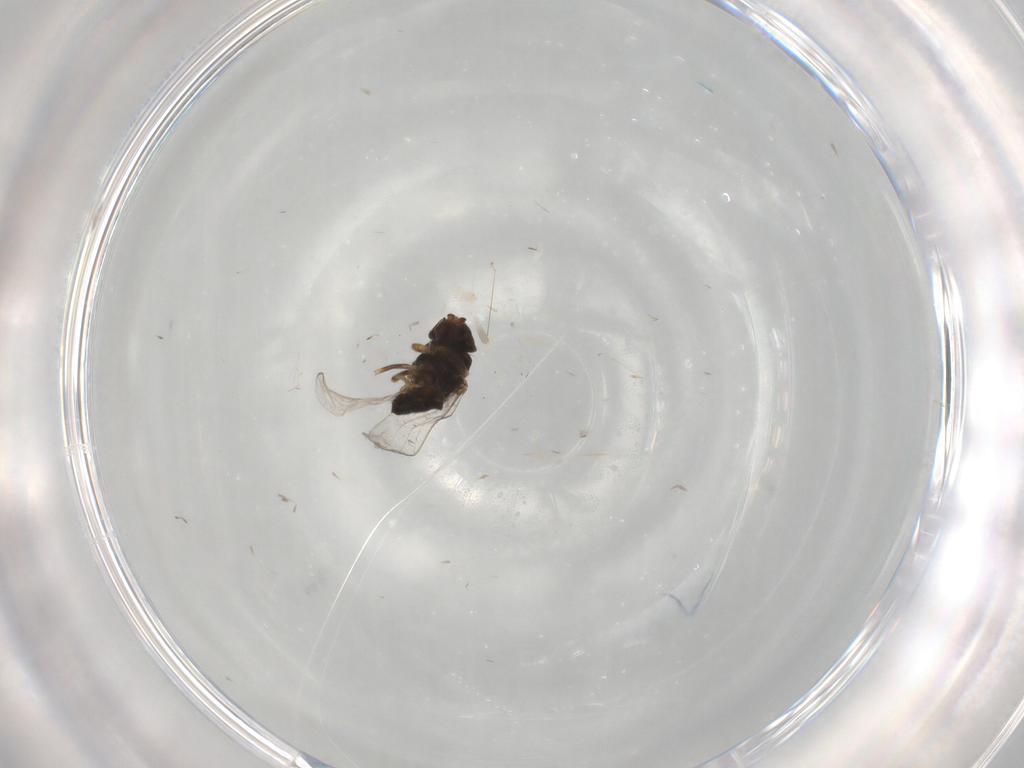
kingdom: Animalia
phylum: Arthropoda
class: Insecta
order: Diptera
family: Chloropidae
